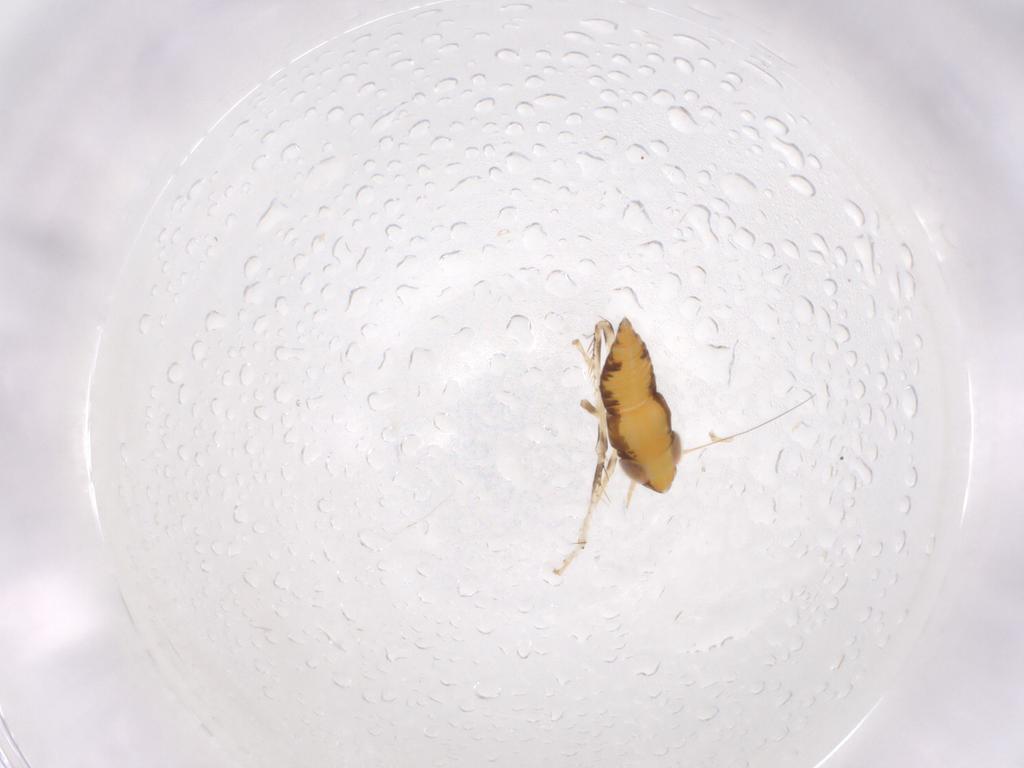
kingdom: Animalia
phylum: Arthropoda
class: Insecta
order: Hemiptera
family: Cicadellidae
